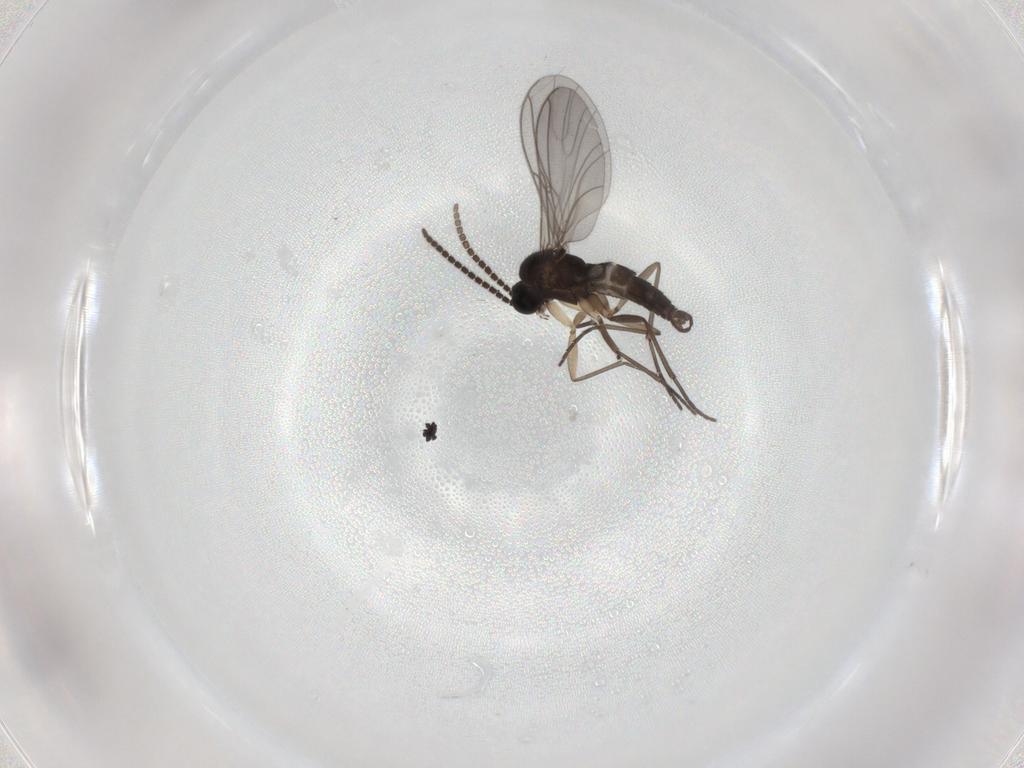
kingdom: Animalia
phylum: Arthropoda
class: Insecta
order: Diptera
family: Sciaridae
